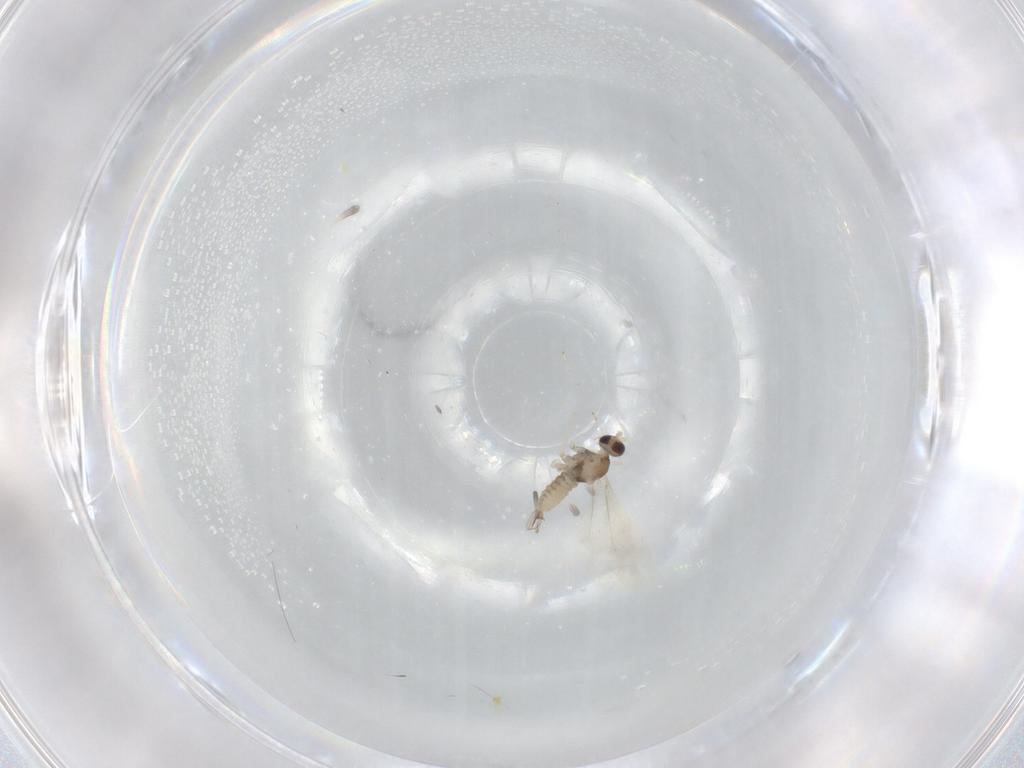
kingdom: Animalia
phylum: Arthropoda
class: Insecta
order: Diptera
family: Cecidomyiidae
